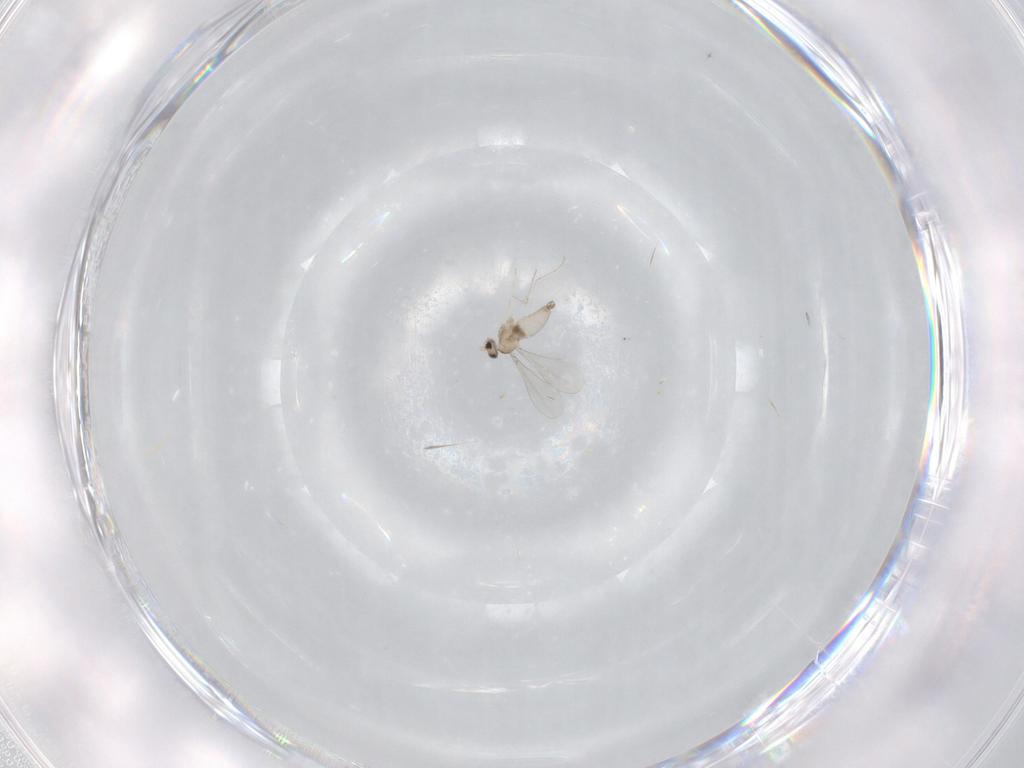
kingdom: Animalia
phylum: Arthropoda
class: Insecta
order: Diptera
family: Cecidomyiidae
